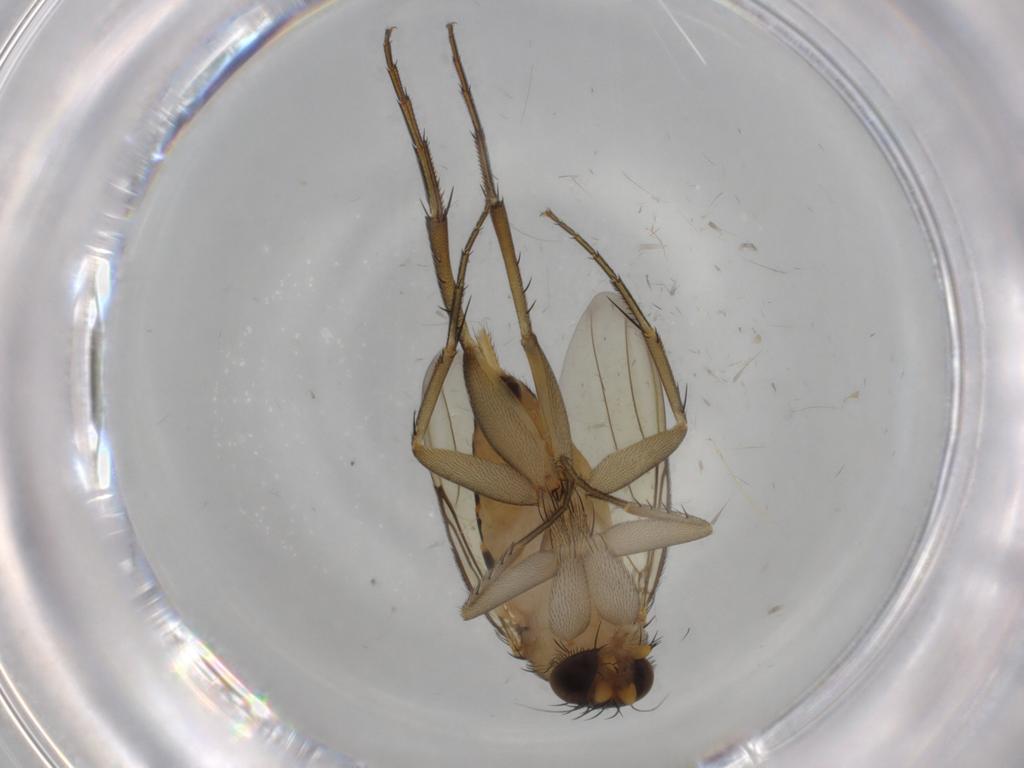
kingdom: Animalia
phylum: Arthropoda
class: Insecta
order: Diptera
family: Phoridae
